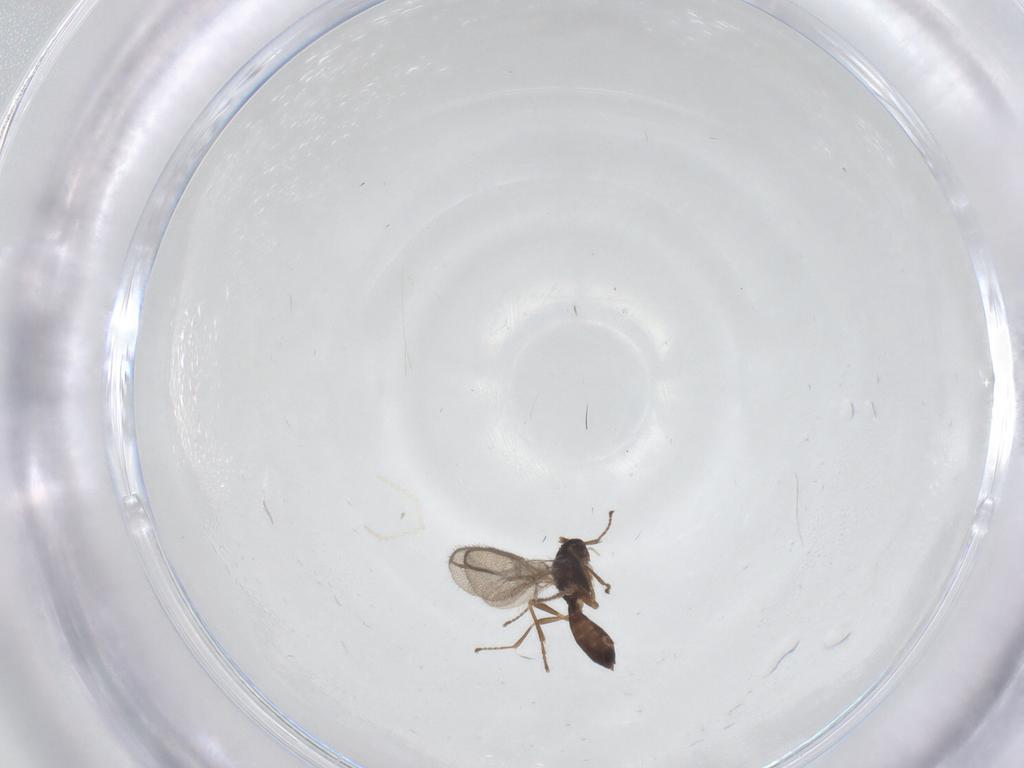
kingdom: Animalia
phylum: Arthropoda
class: Insecta
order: Hymenoptera
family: Braconidae
